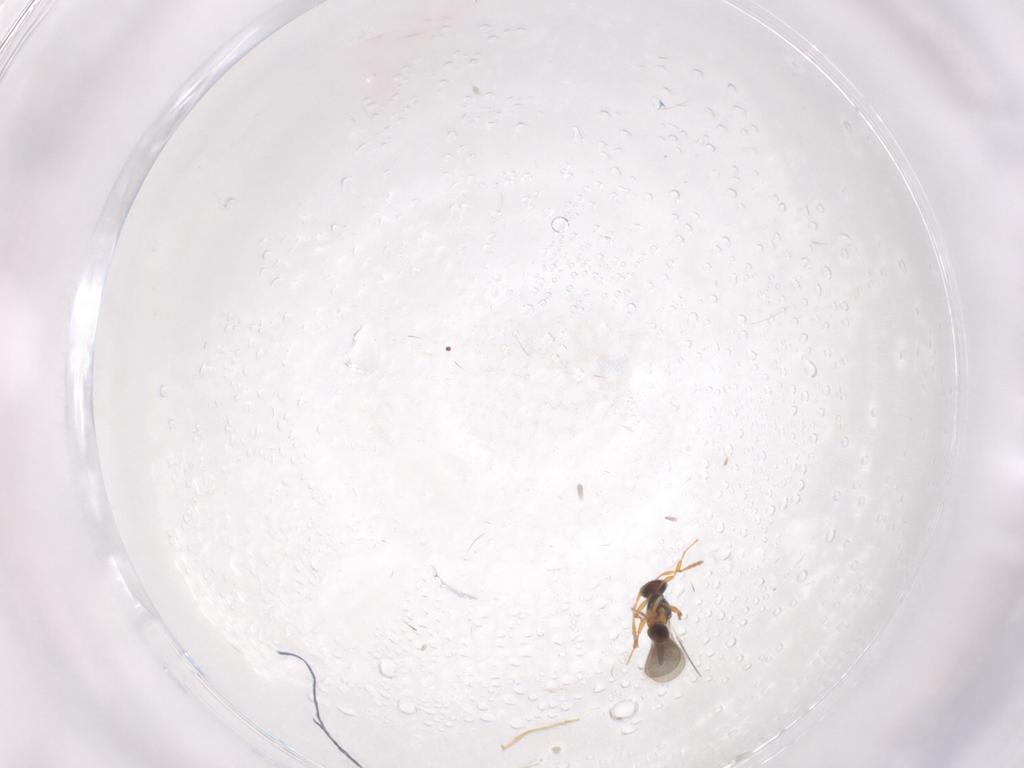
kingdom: Animalia
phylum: Arthropoda
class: Insecta
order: Hymenoptera
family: Platygastridae
